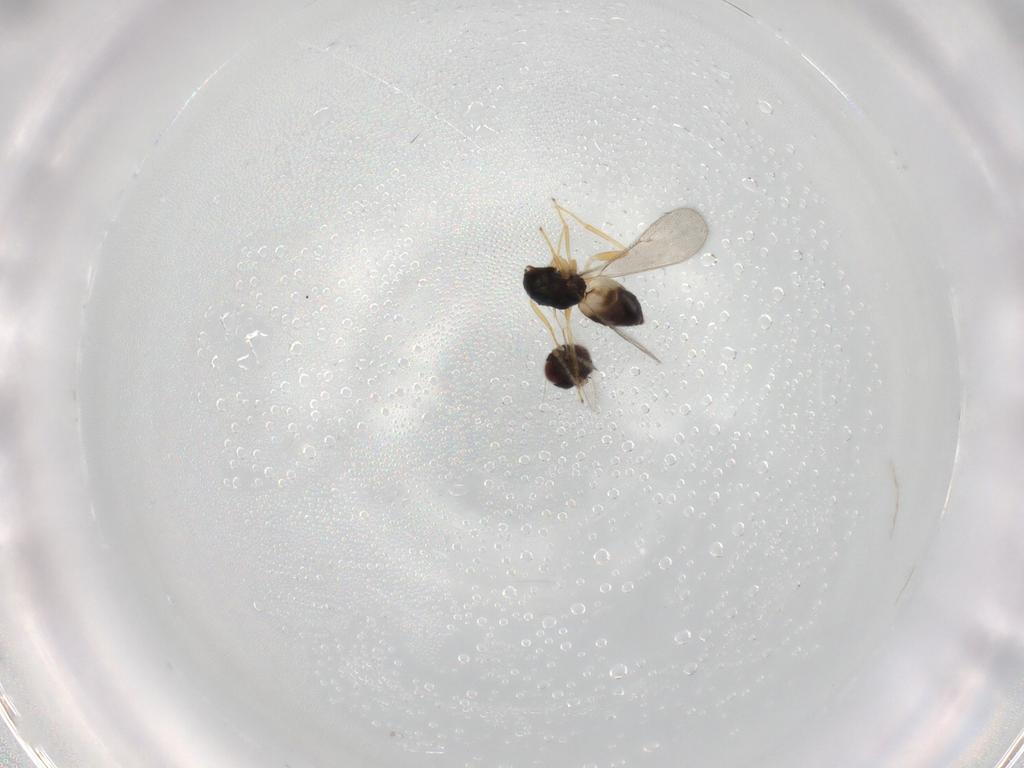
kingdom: Animalia
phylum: Arthropoda
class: Insecta
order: Hymenoptera
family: Eulophidae
